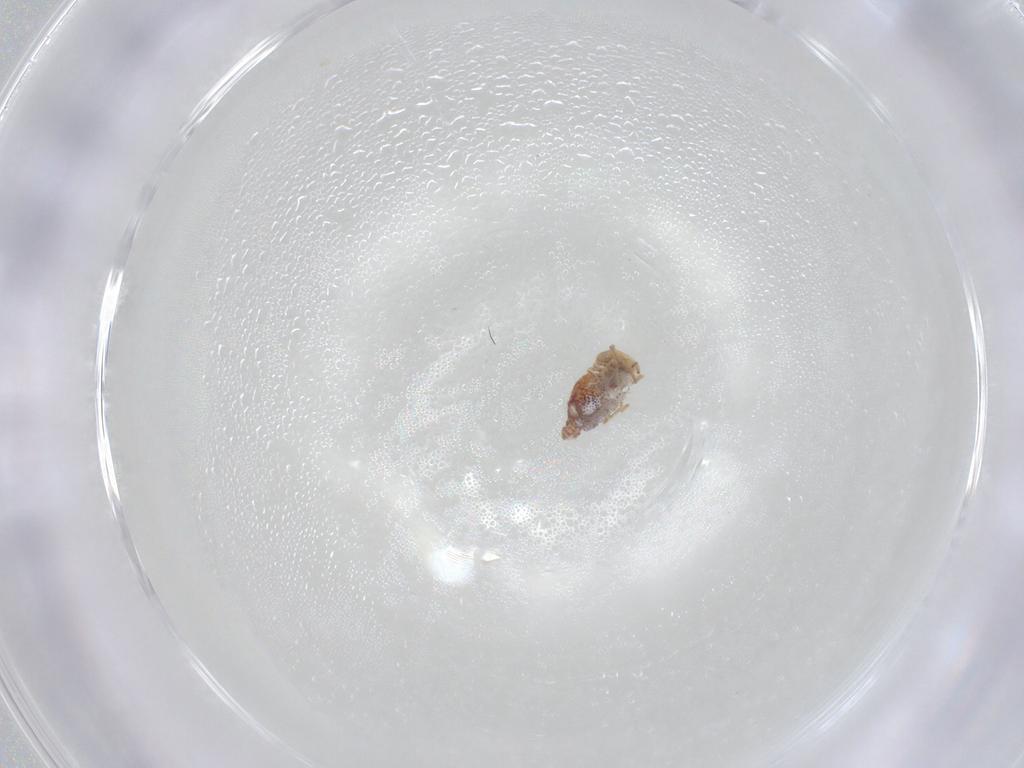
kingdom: Animalia
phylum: Arthropoda
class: Collembola
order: Symphypleona
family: Bourletiellidae
